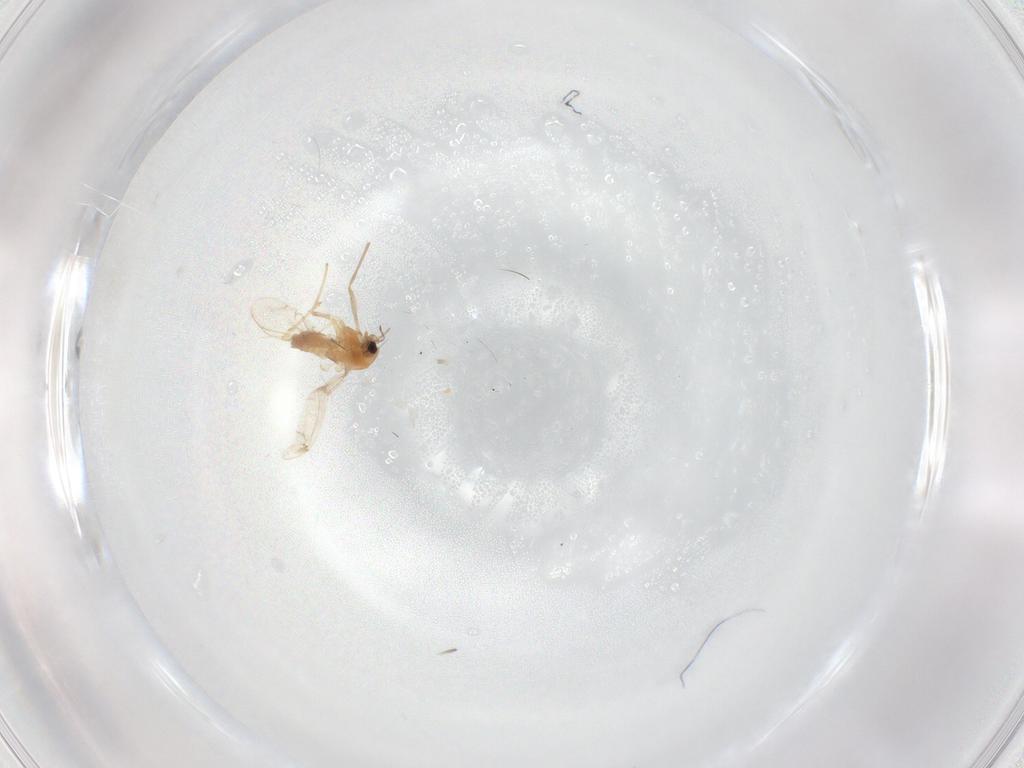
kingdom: Animalia
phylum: Arthropoda
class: Insecta
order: Diptera
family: Chironomidae
